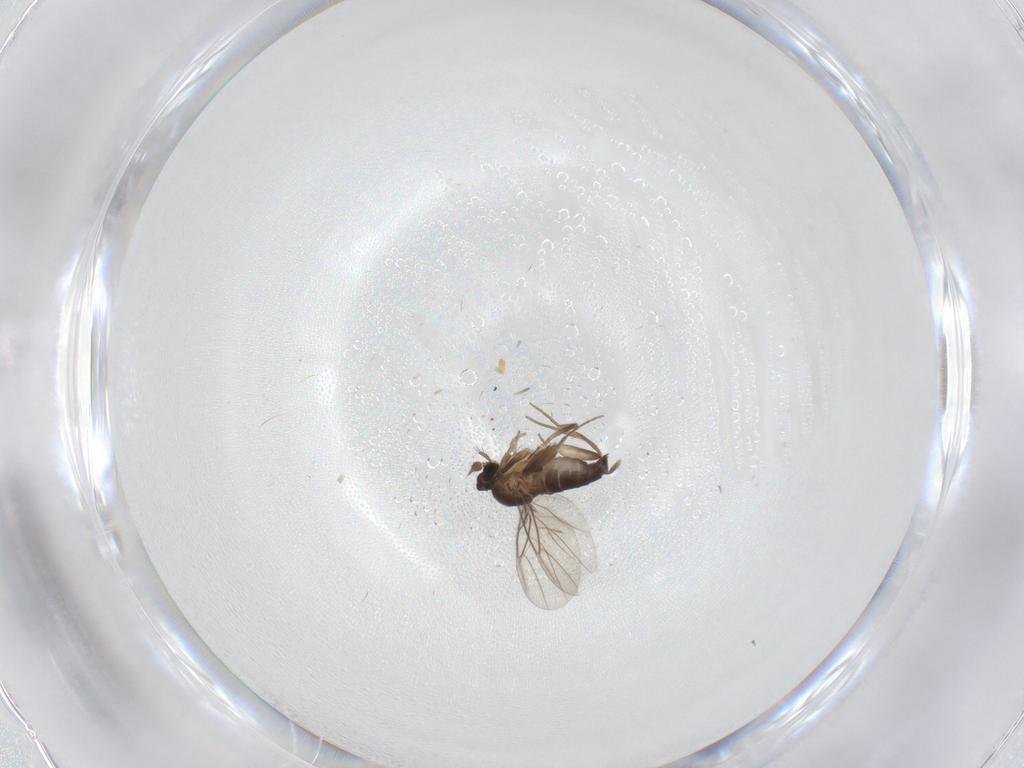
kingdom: Animalia
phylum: Arthropoda
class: Insecta
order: Diptera
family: Phoridae
